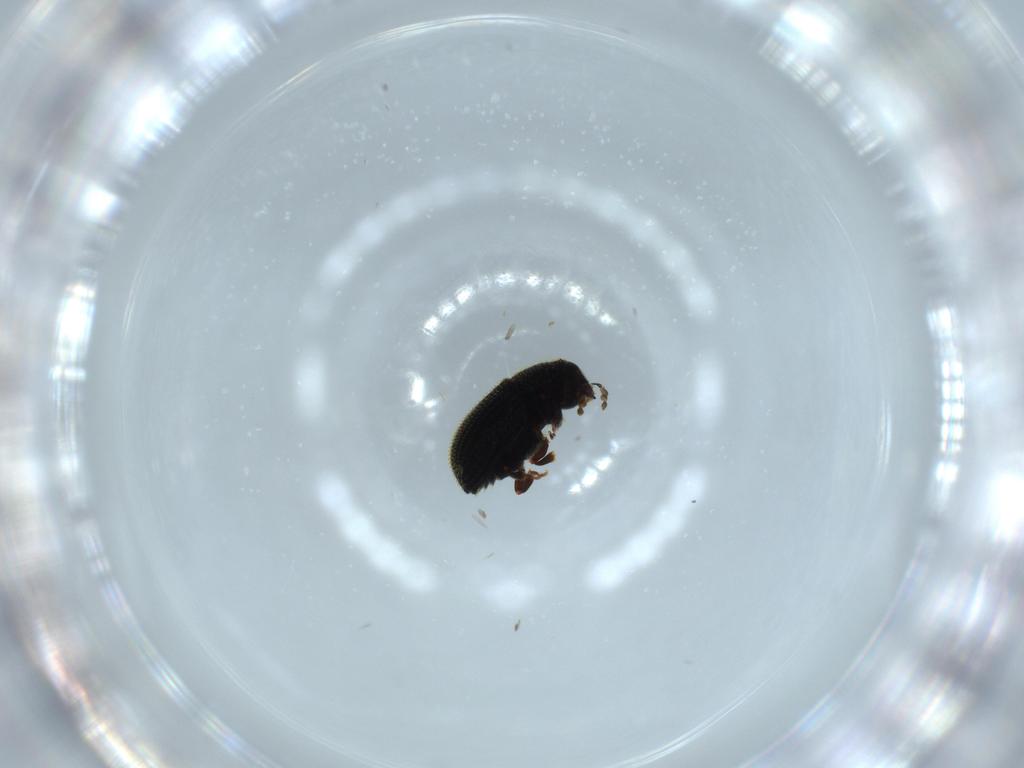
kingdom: Animalia
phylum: Arthropoda
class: Insecta
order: Coleoptera
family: Curculionidae
